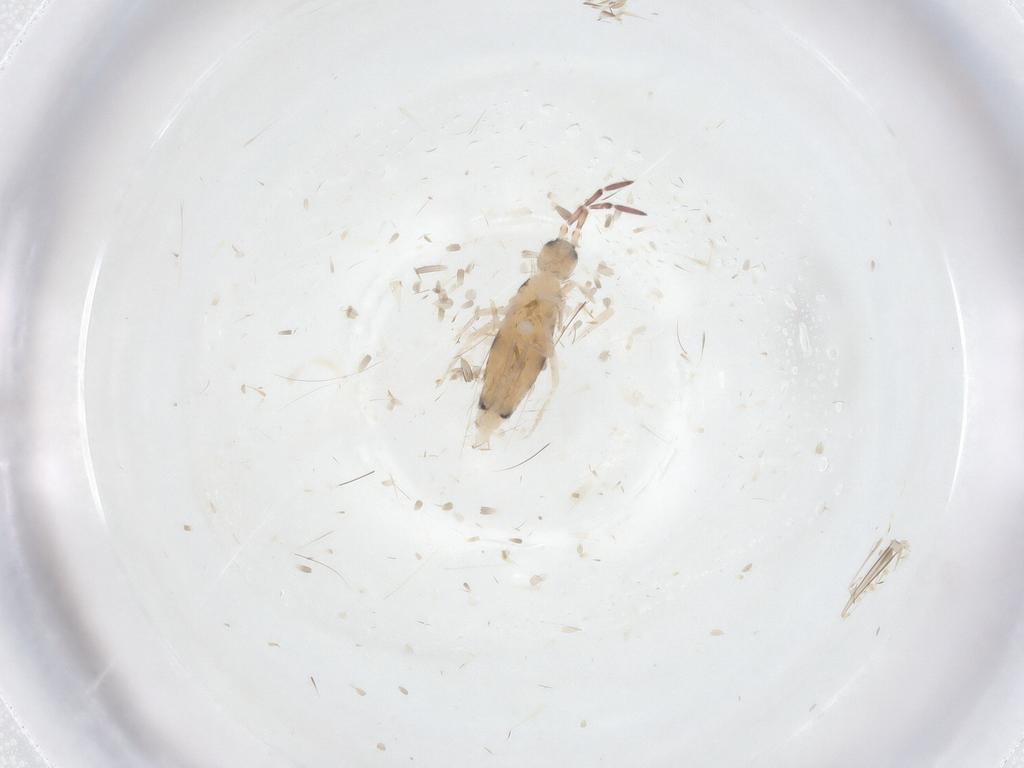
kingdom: Animalia
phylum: Arthropoda
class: Collembola
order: Entomobryomorpha
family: Entomobryidae
